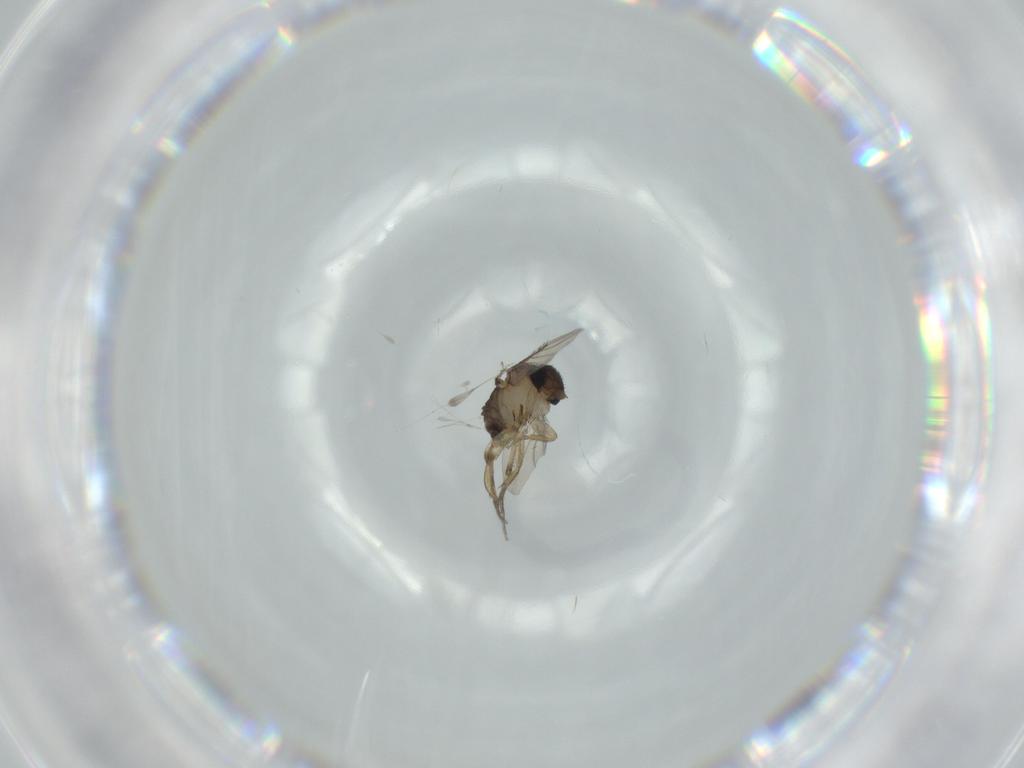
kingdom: Animalia
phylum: Arthropoda
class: Insecta
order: Diptera
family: Phoridae
